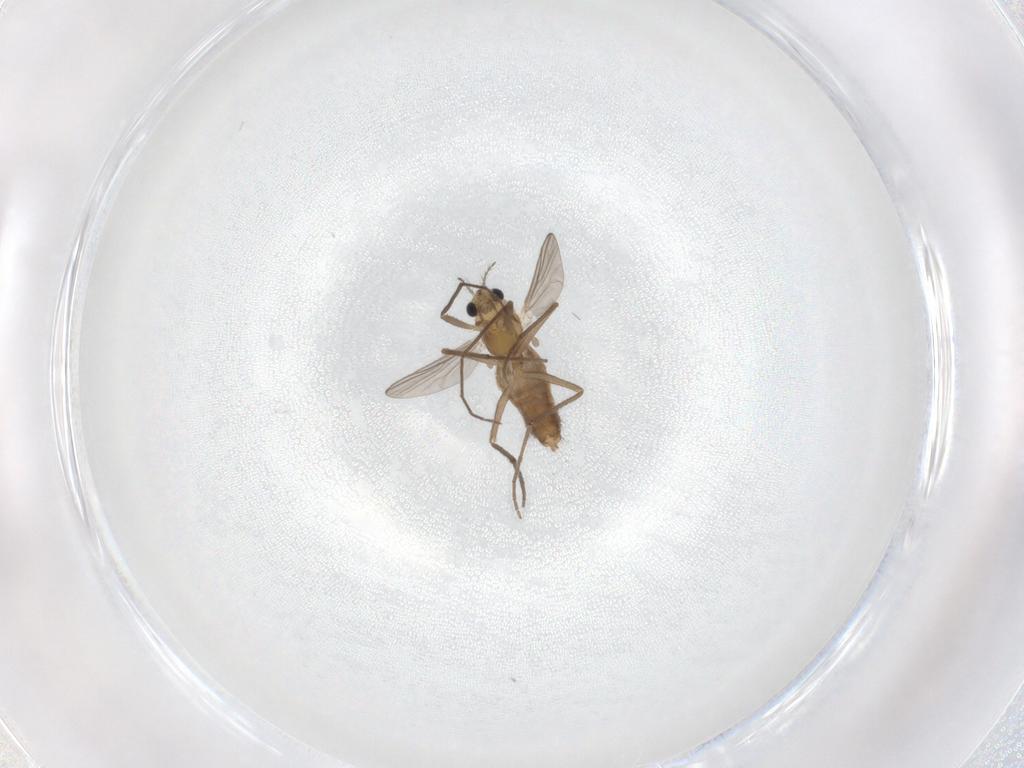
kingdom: Animalia
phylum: Arthropoda
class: Insecta
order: Diptera
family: Chironomidae
